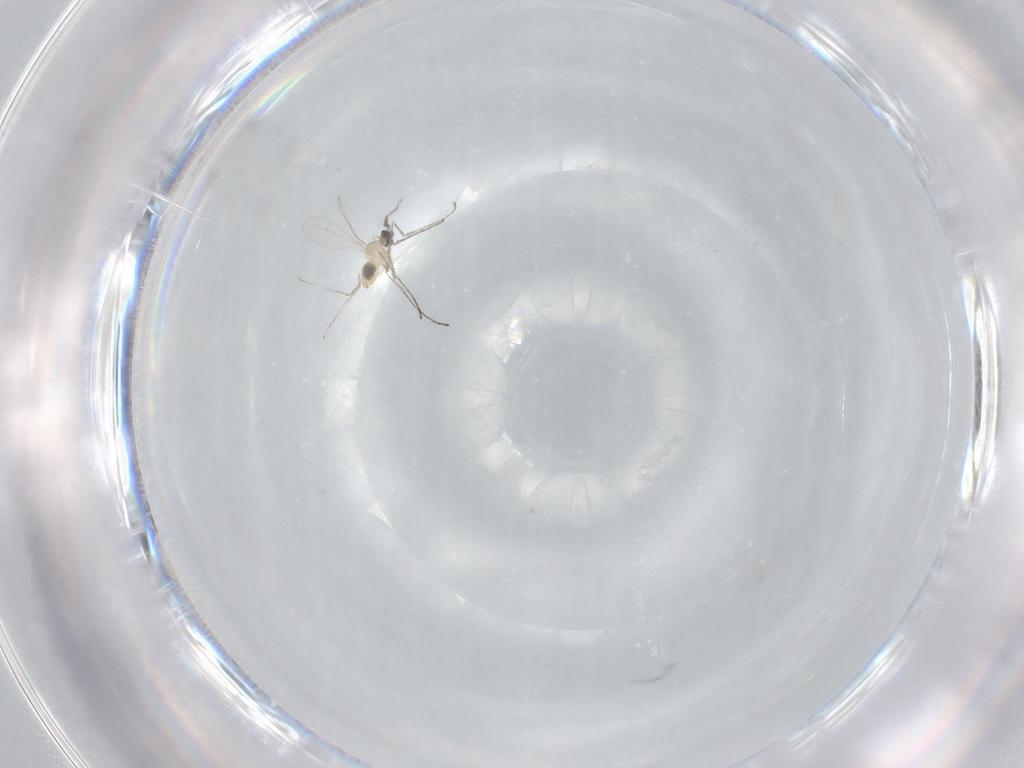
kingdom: Animalia
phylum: Arthropoda
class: Insecta
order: Diptera
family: Cecidomyiidae
